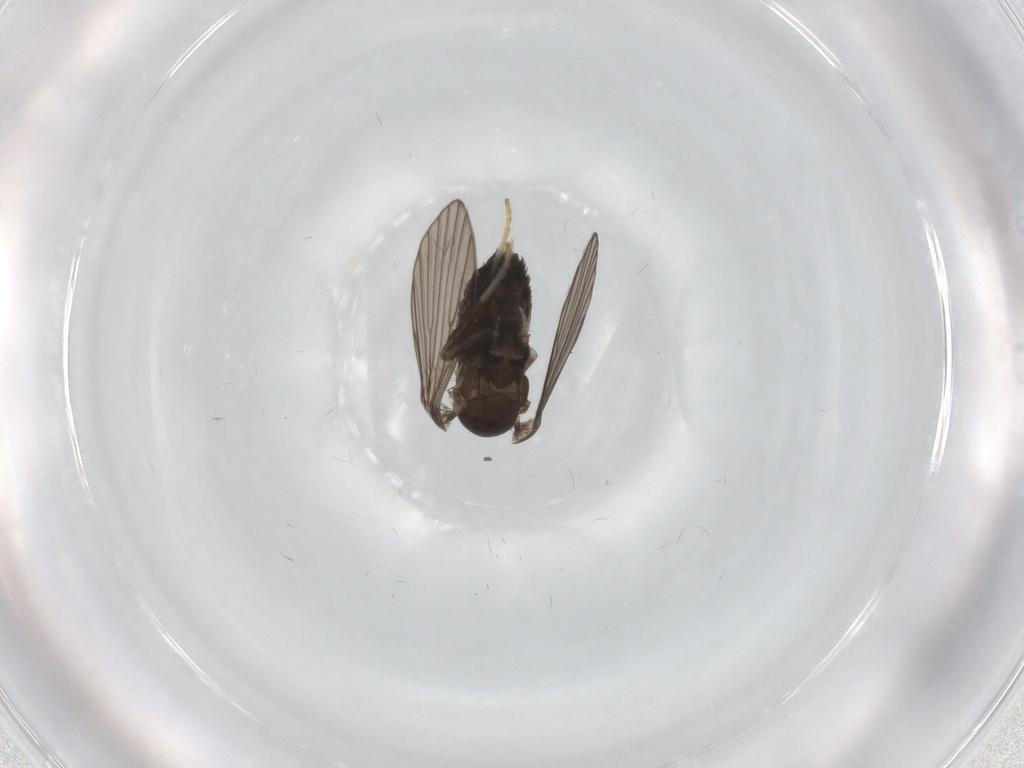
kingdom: Animalia
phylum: Arthropoda
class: Insecta
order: Diptera
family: Psychodidae
